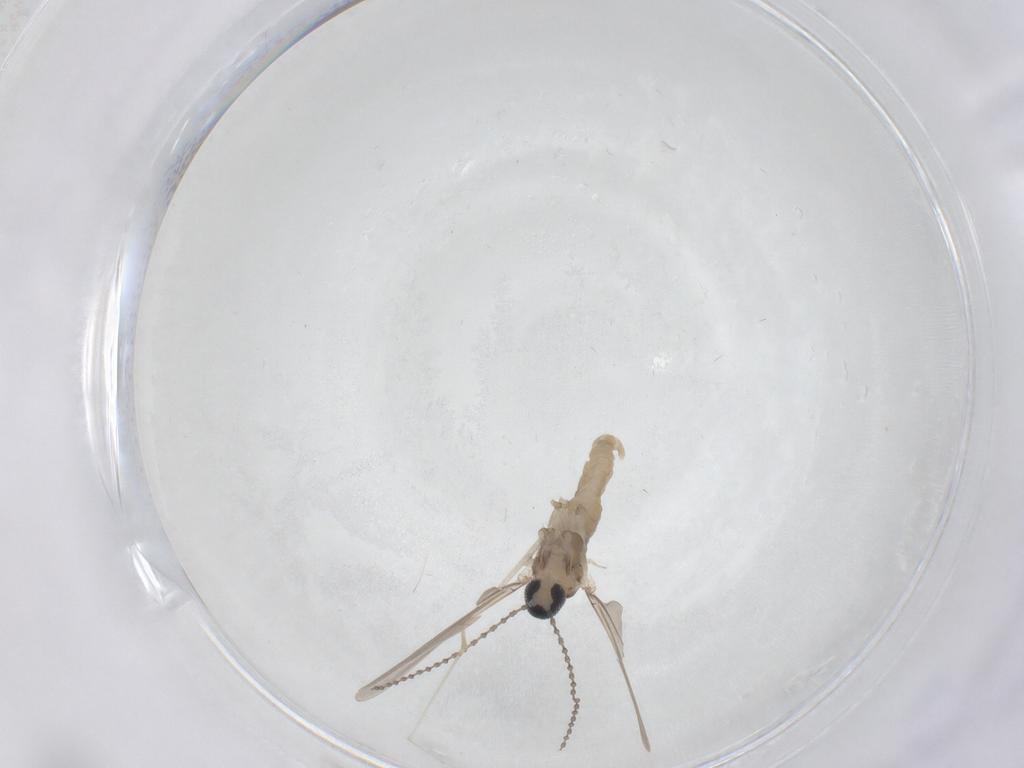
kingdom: Animalia
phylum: Arthropoda
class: Insecta
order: Diptera
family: Cecidomyiidae
